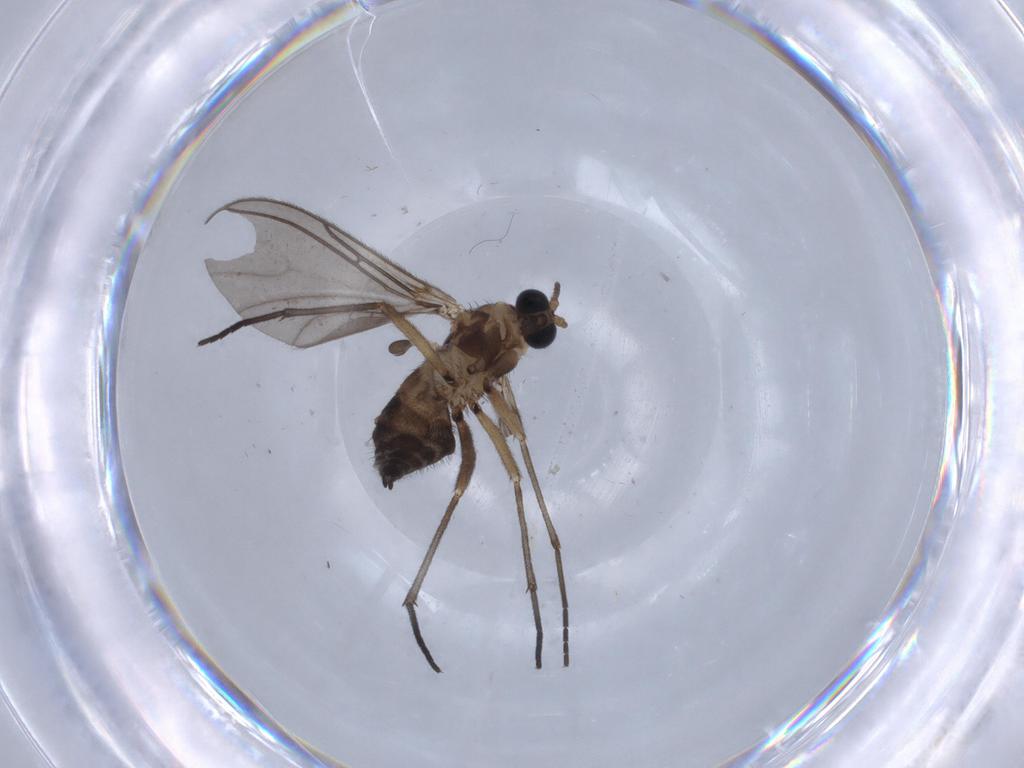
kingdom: Animalia
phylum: Arthropoda
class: Insecta
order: Diptera
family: Sciaridae
